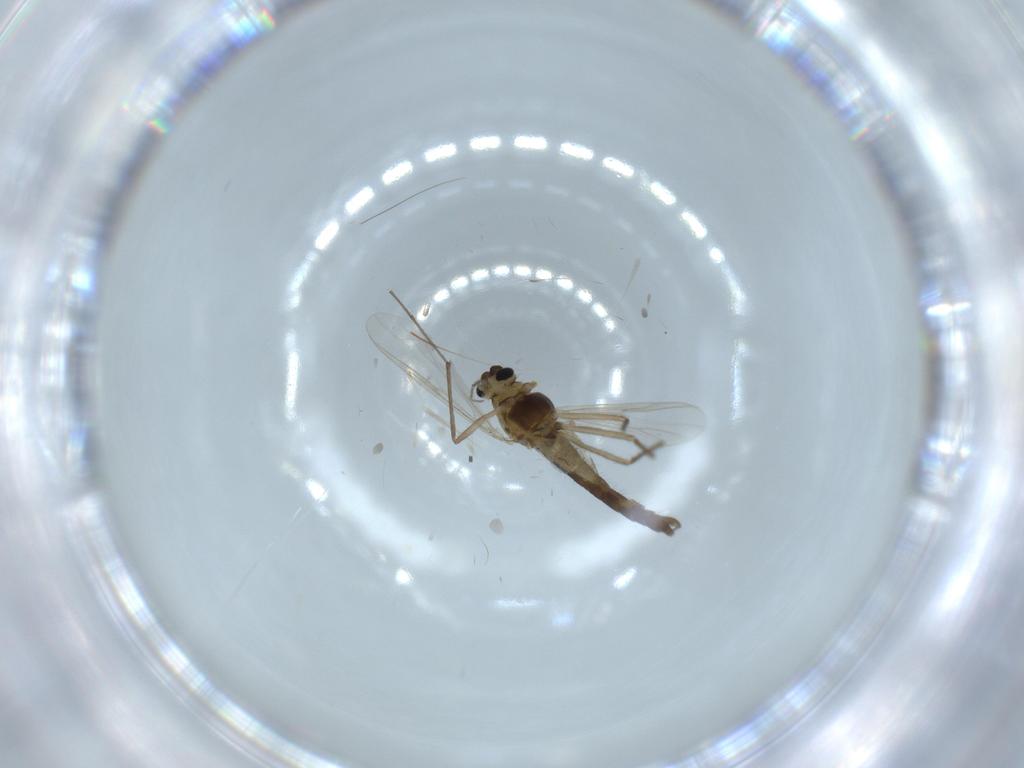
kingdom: Animalia
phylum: Arthropoda
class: Insecta
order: Diptera
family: Chironomidae
